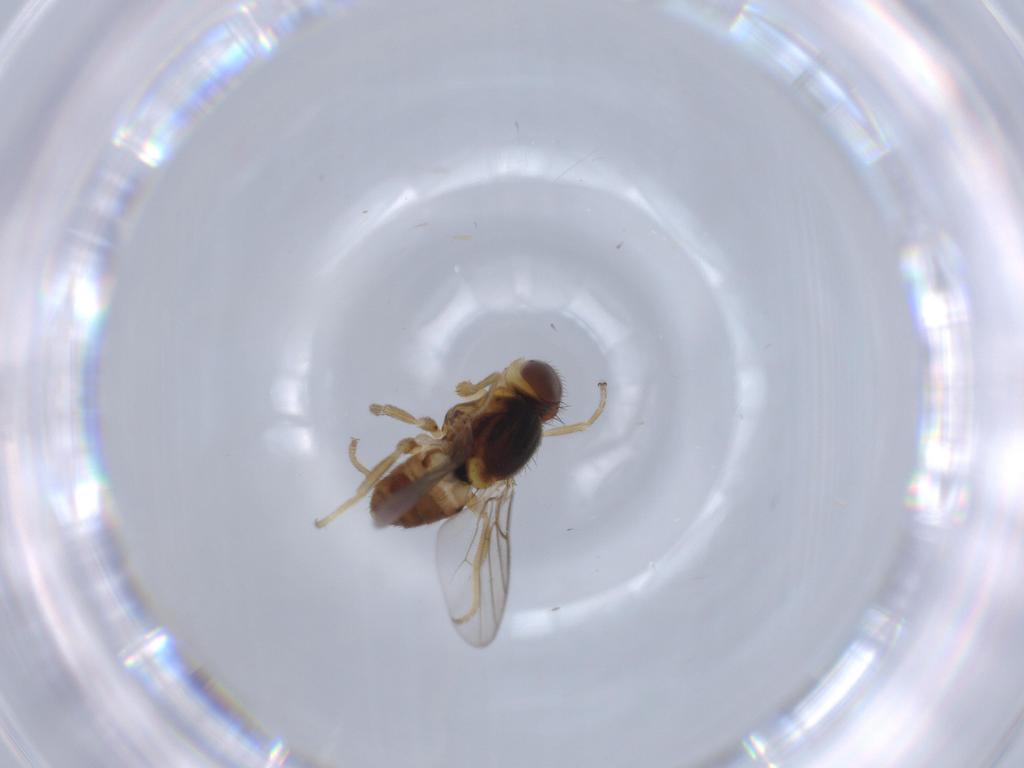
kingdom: Animalia
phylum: Arthropoda
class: Insecta
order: Diptera
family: Chloropidae
